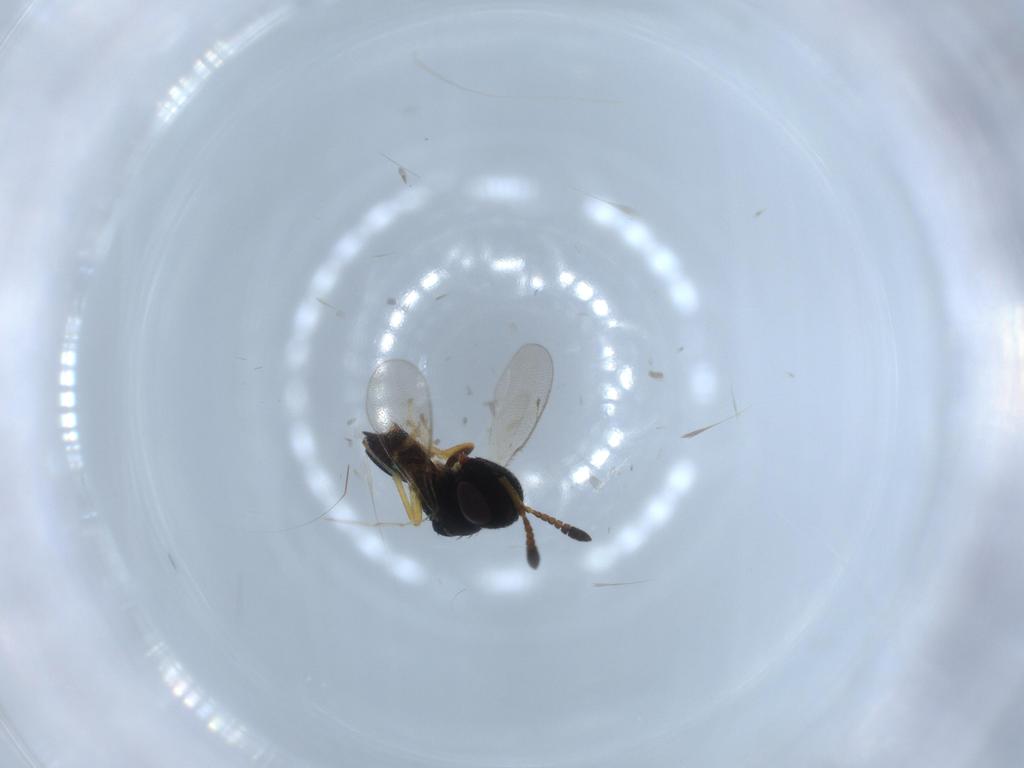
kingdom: Animalia
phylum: Arthropoda
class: Insecta
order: Hymenoptera
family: Pteromalidae
